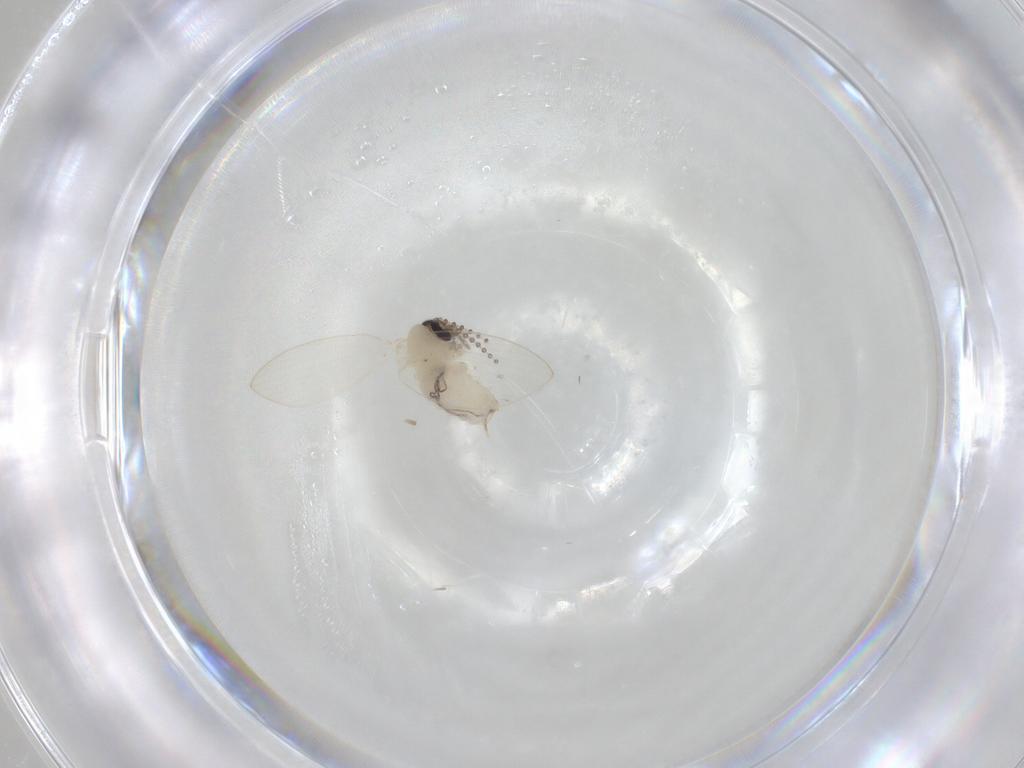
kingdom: Animalia
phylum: Arthropoda
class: Insecta
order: Diptera
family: Psychodidae
